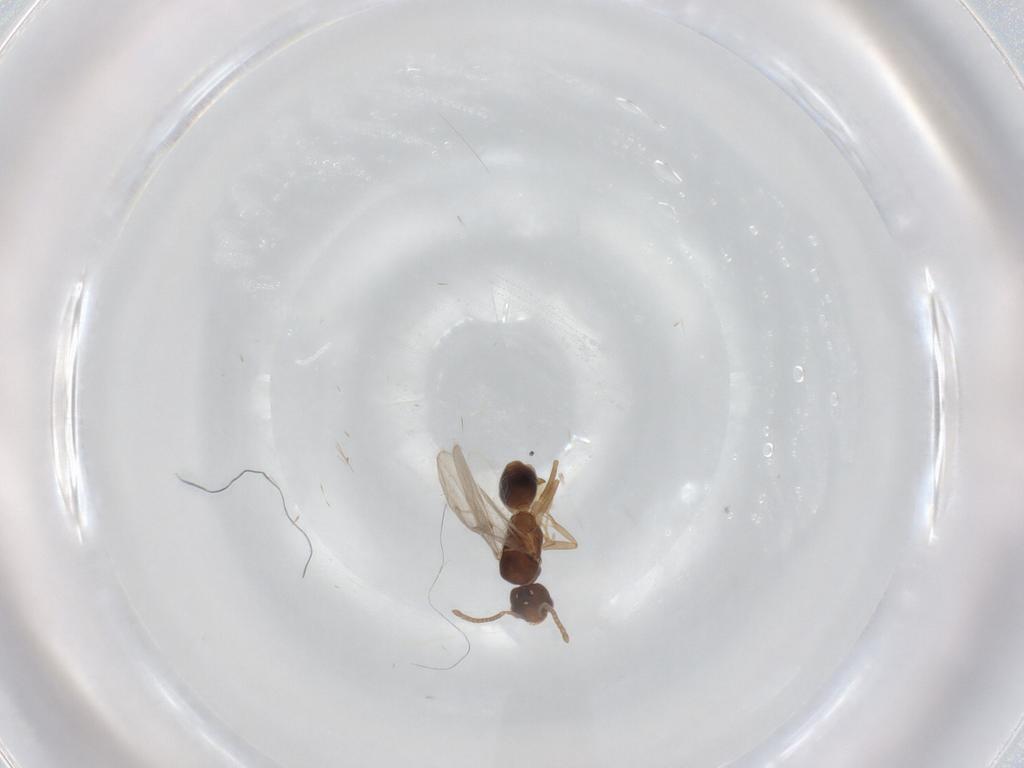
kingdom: Animalia
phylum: Arthropoda
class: Insecta
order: Hymenoptera
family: Formicidae
